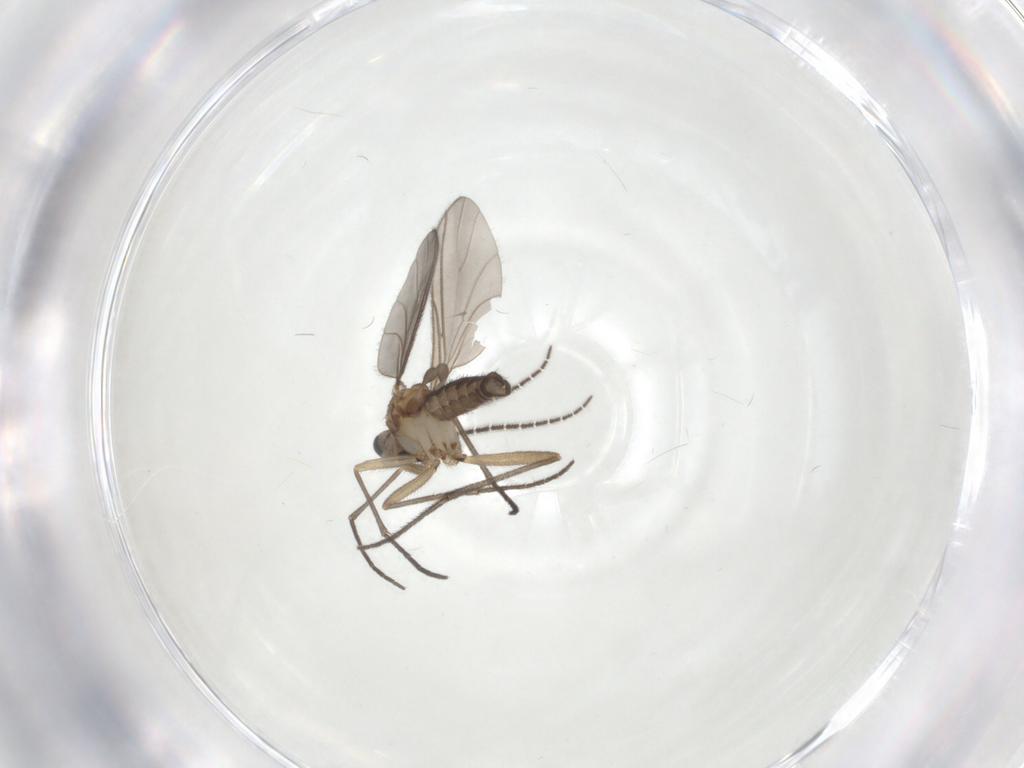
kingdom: Animalia
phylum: Arthropoda
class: Insecta
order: Diptera
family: Sciaridae
